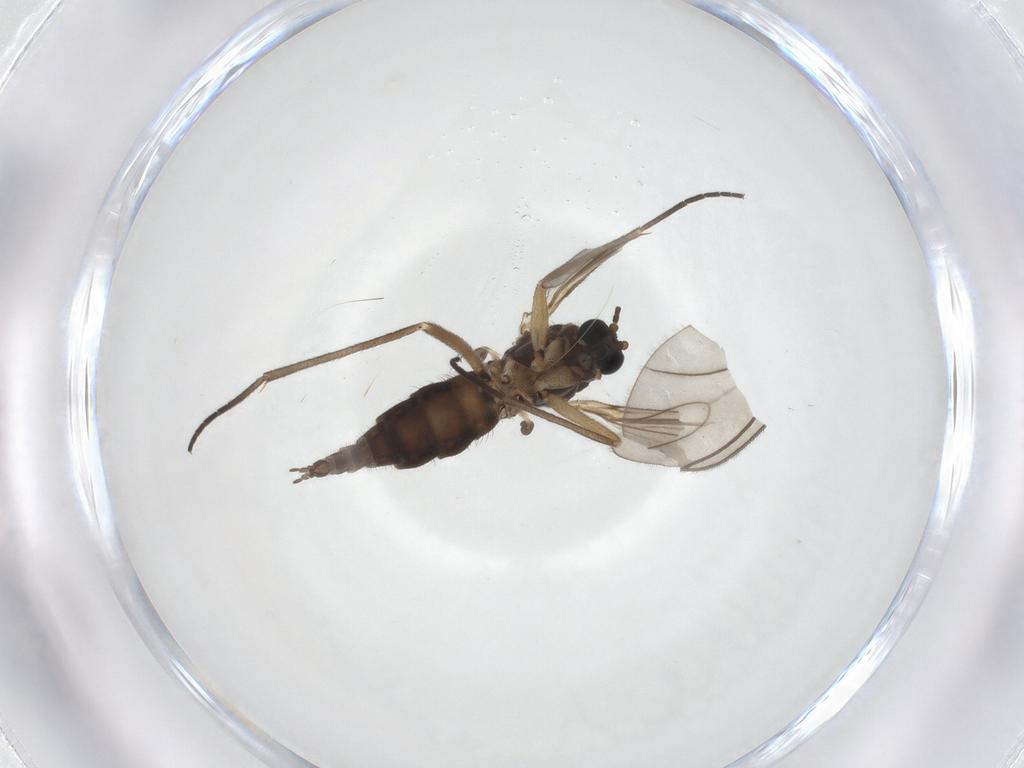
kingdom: Animalia
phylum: Arthropoda
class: Insecta
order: Diptera
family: Sciaridae
